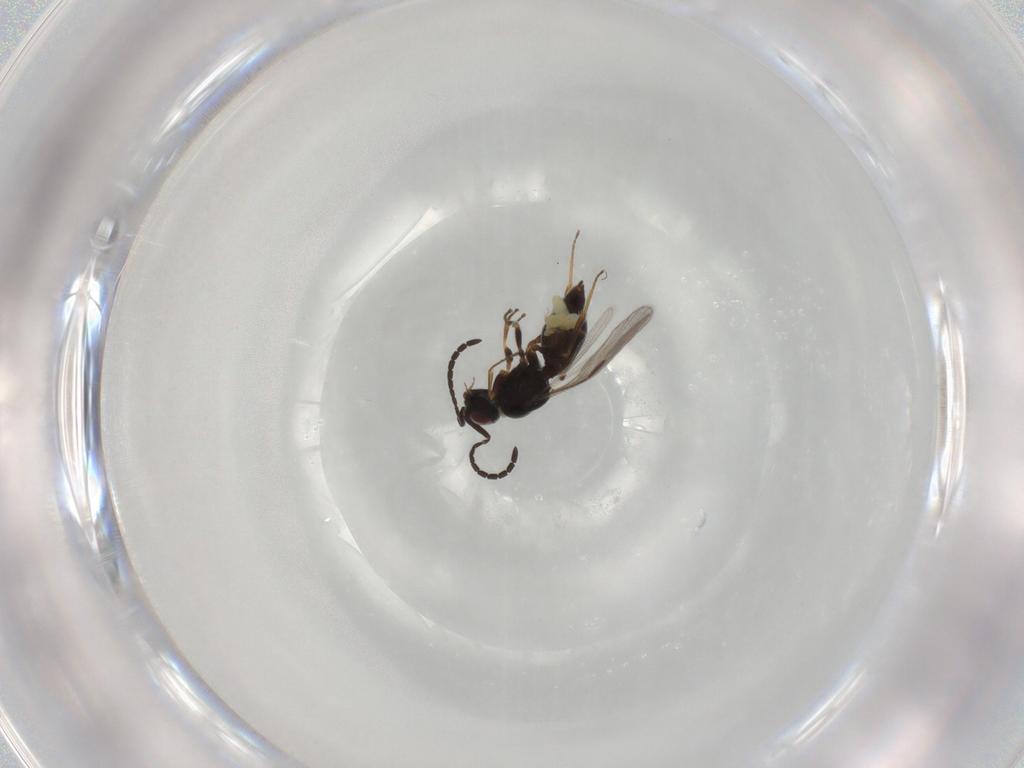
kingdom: Animalia
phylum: Arthropoda
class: Insecta
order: Hymenoptera
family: Megaspilidae
